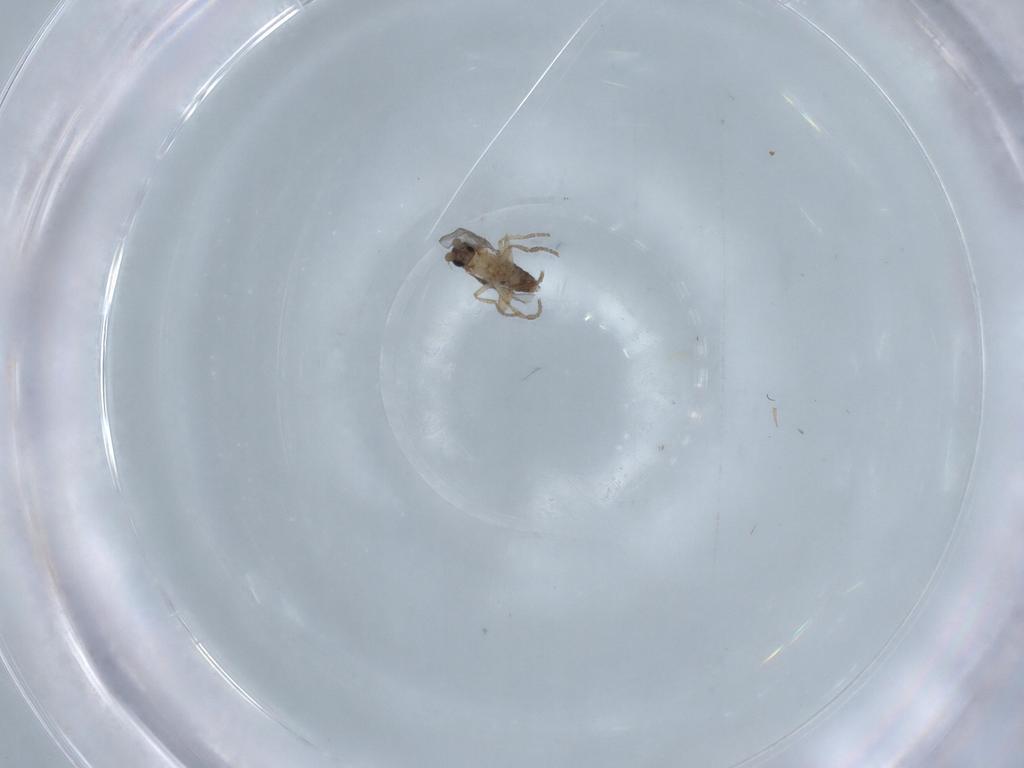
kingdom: Animalia
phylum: Arthropoda
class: Insecta
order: Diptera
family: Phoridae
